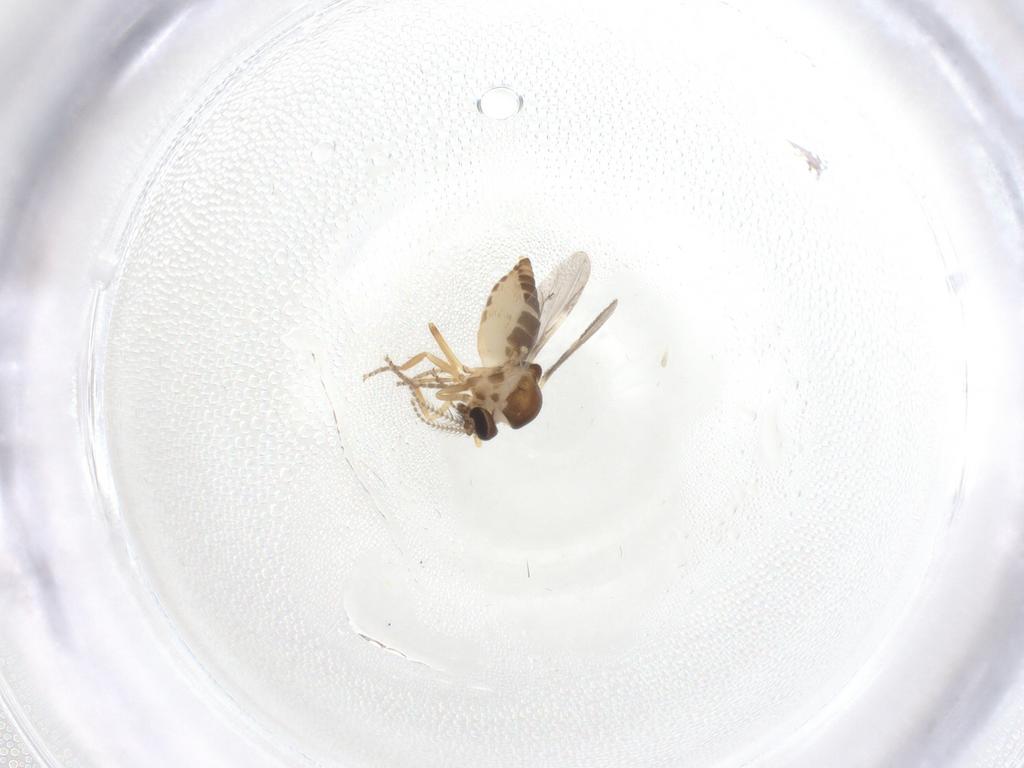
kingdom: Animalia
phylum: Arthropoda
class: Insecta
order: Diptera
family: Ceratopogonidae
